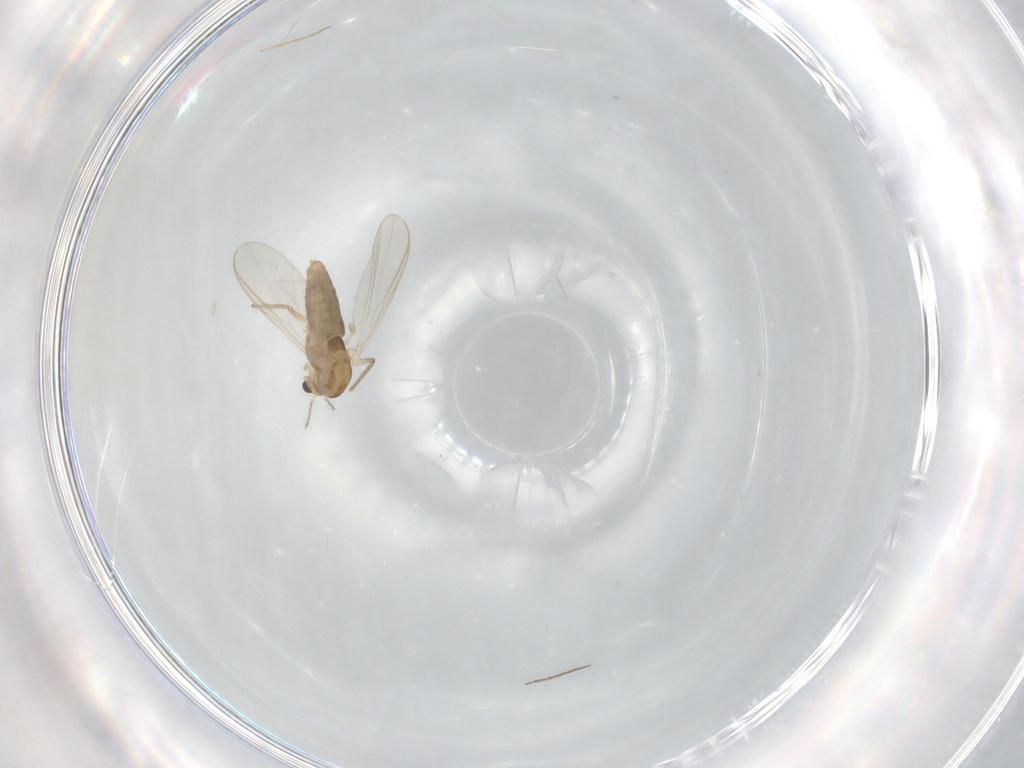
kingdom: Animalia
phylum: Arthropoda
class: Insecta
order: Diptera
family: Chironomidae
